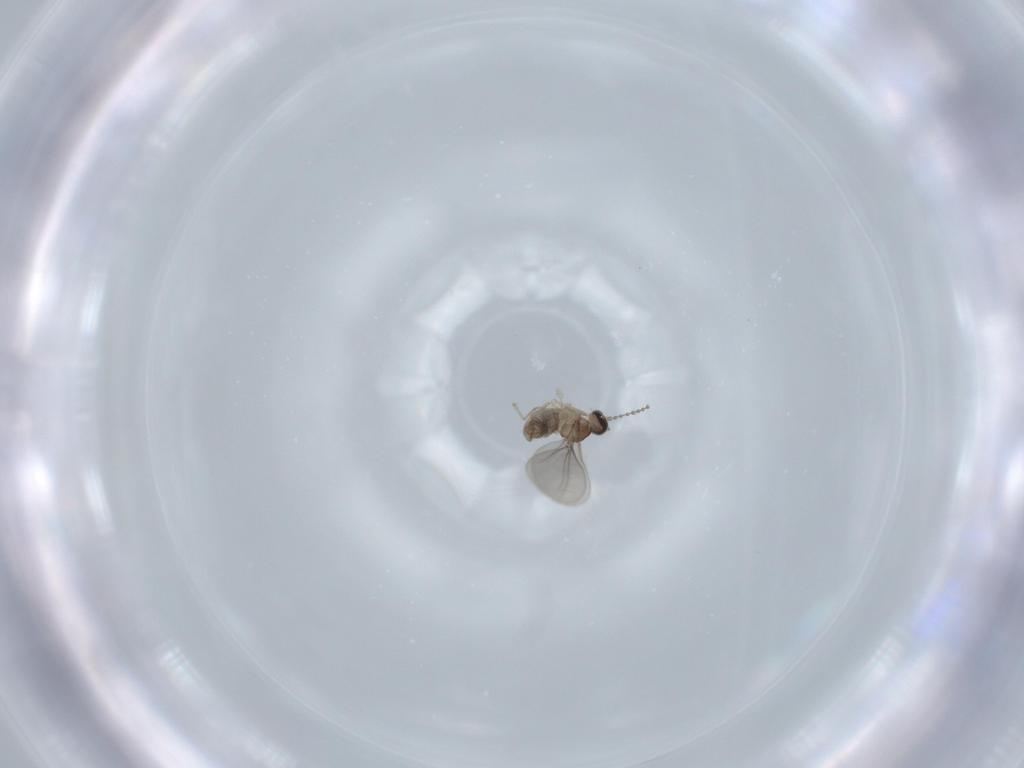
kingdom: Animalia
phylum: Arthropoda
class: Insecta
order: Diptera
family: Cecidomyiidae
